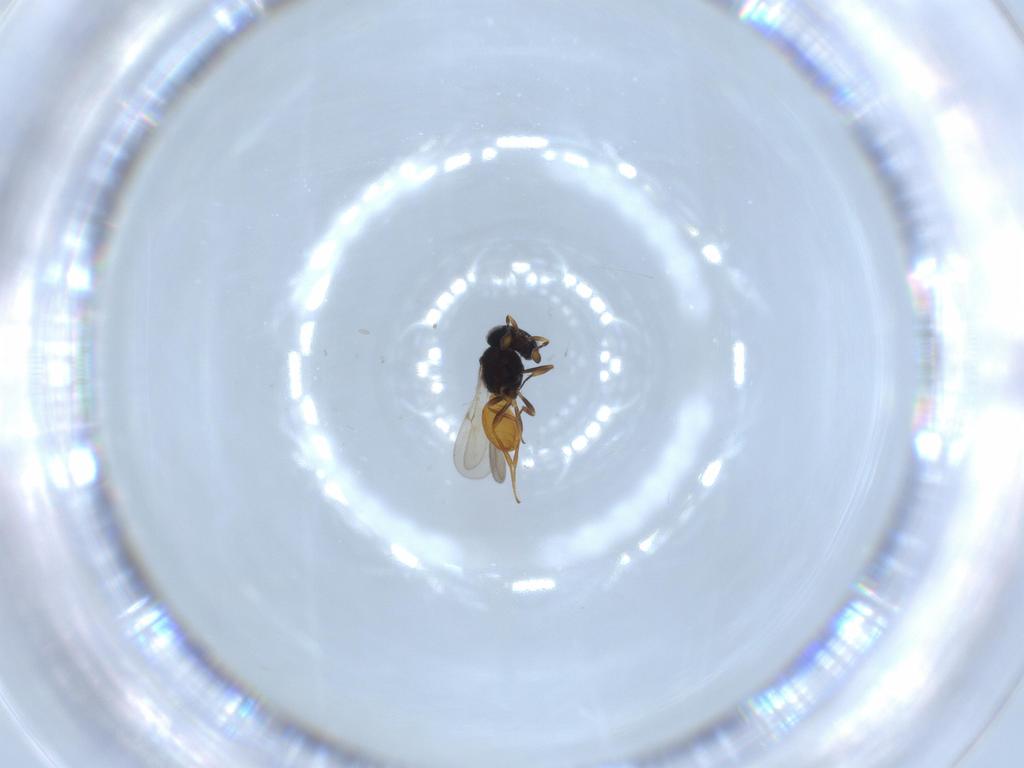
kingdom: Animalia
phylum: Arthropoda
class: Insecta
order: Hymenoptera
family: Scelionidae
